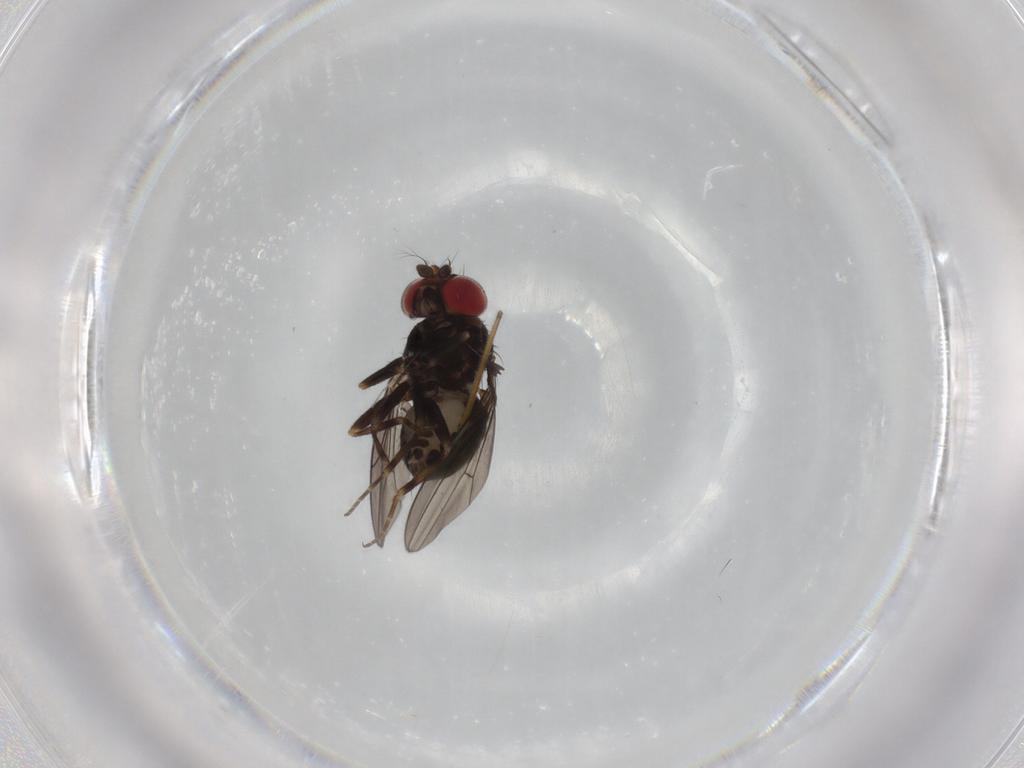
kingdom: Animalia
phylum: Arthropoda
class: Insecta
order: Diptera
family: Ephydridae
